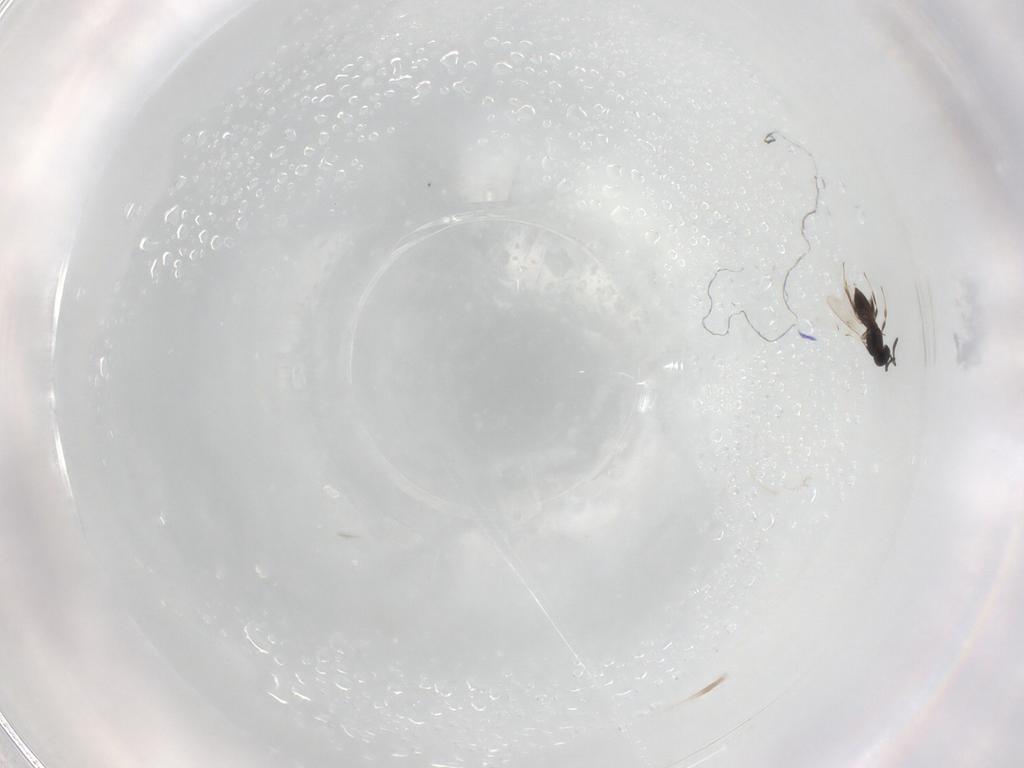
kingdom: Animalia
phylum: Arthropoda
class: Insecta
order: Hymenoptera
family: Scelionidae
